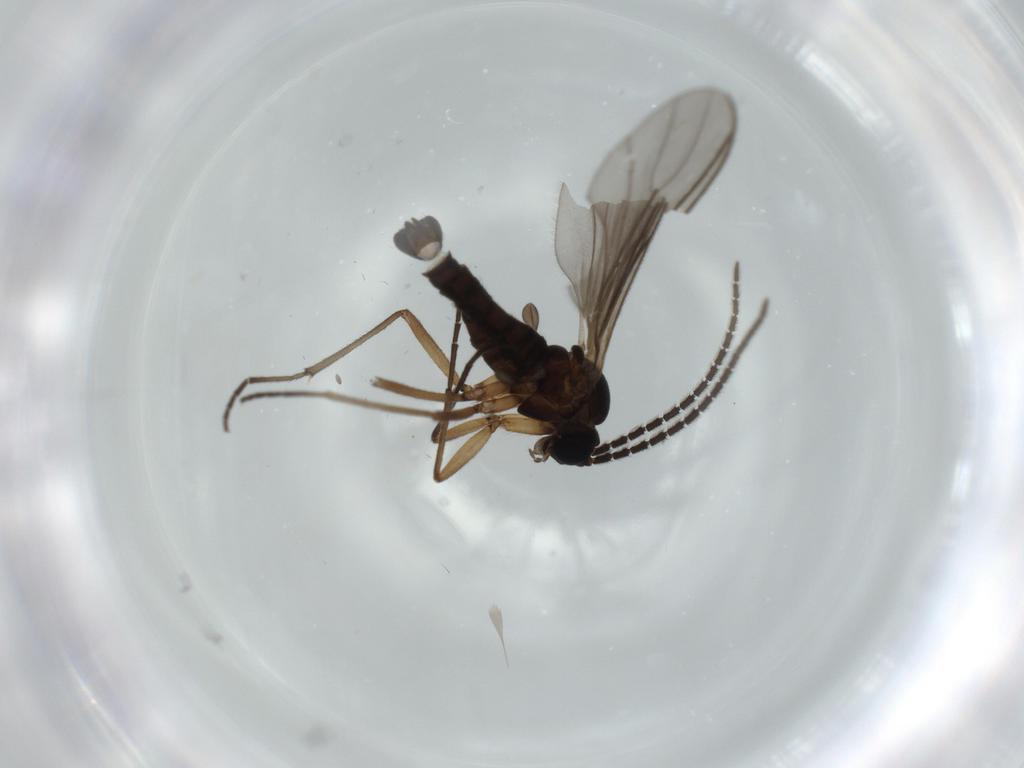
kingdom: Animalia
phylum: Arthropoda
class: Insecta
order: Diptera
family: Sciaridae
